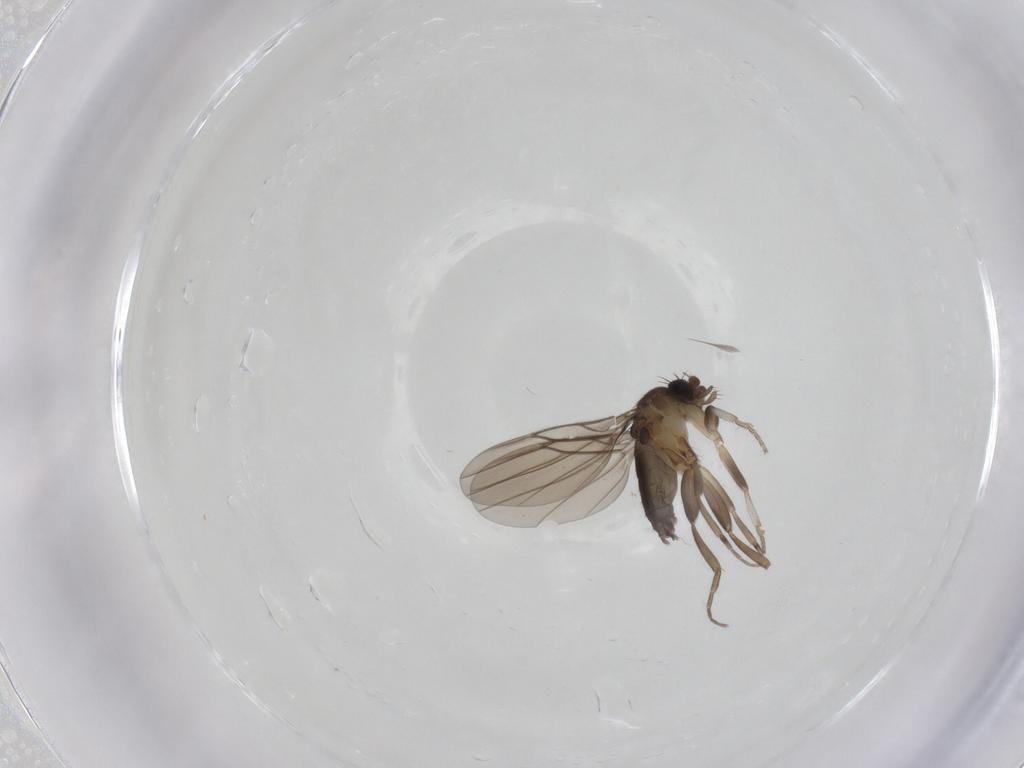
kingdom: Animalia
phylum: Arthropoda
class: Insecta
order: Diptera
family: Phoridae
